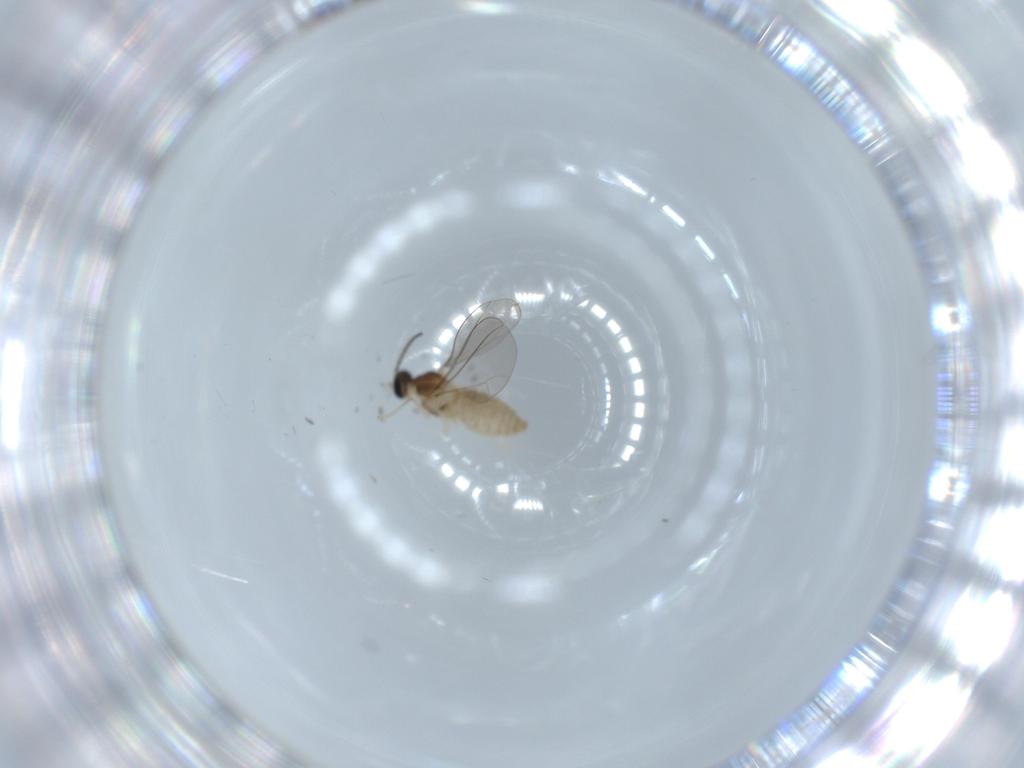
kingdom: Animalia
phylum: Arthropoda
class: Insecta
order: Diptera
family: Cecidomyiidae
